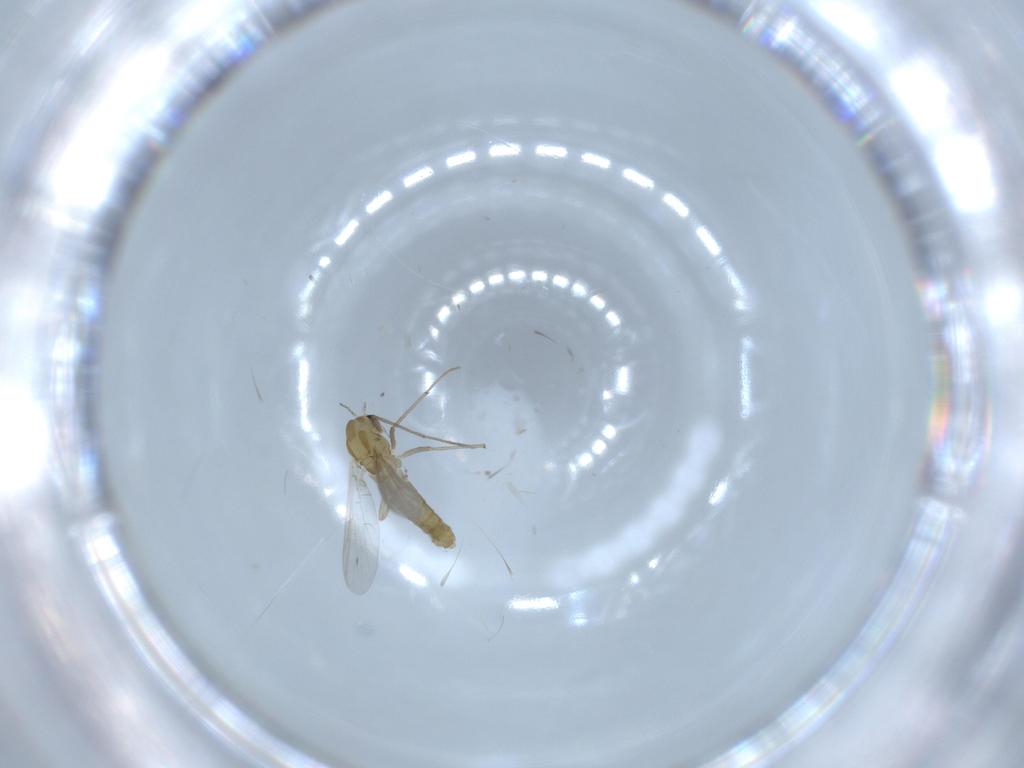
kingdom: Animalia
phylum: Arthropoda
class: Insecta
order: Diptera
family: Chironomidae
